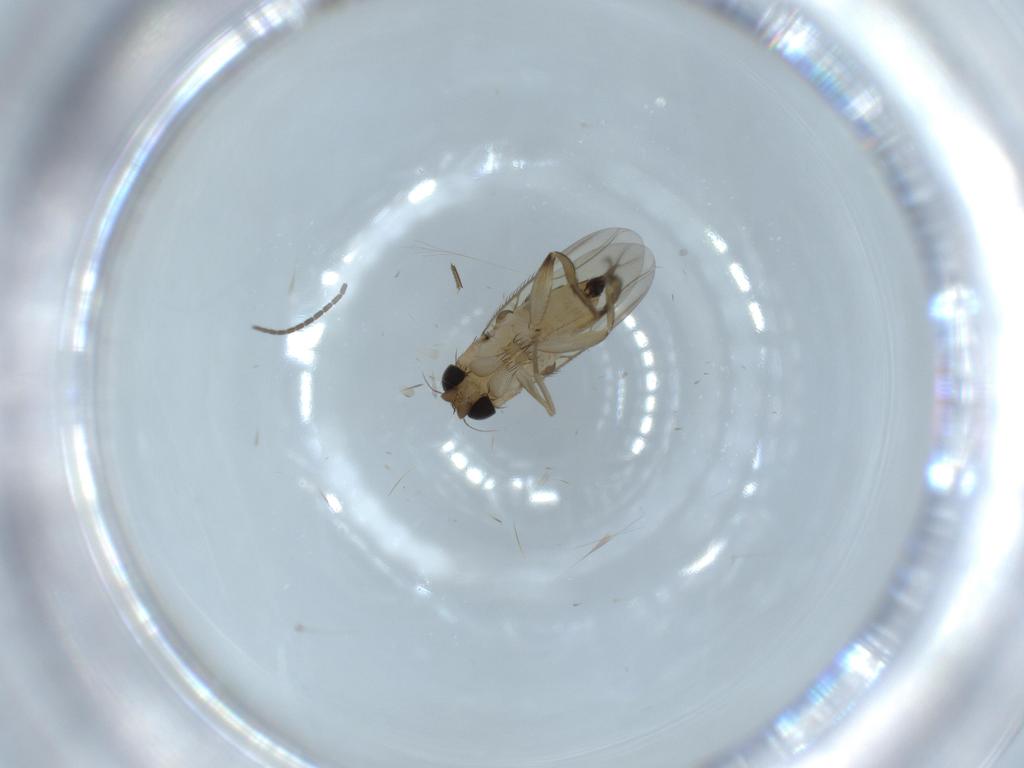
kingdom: Animalia
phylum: Arthropoda
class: Insecta
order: Diptera
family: Phoridae
